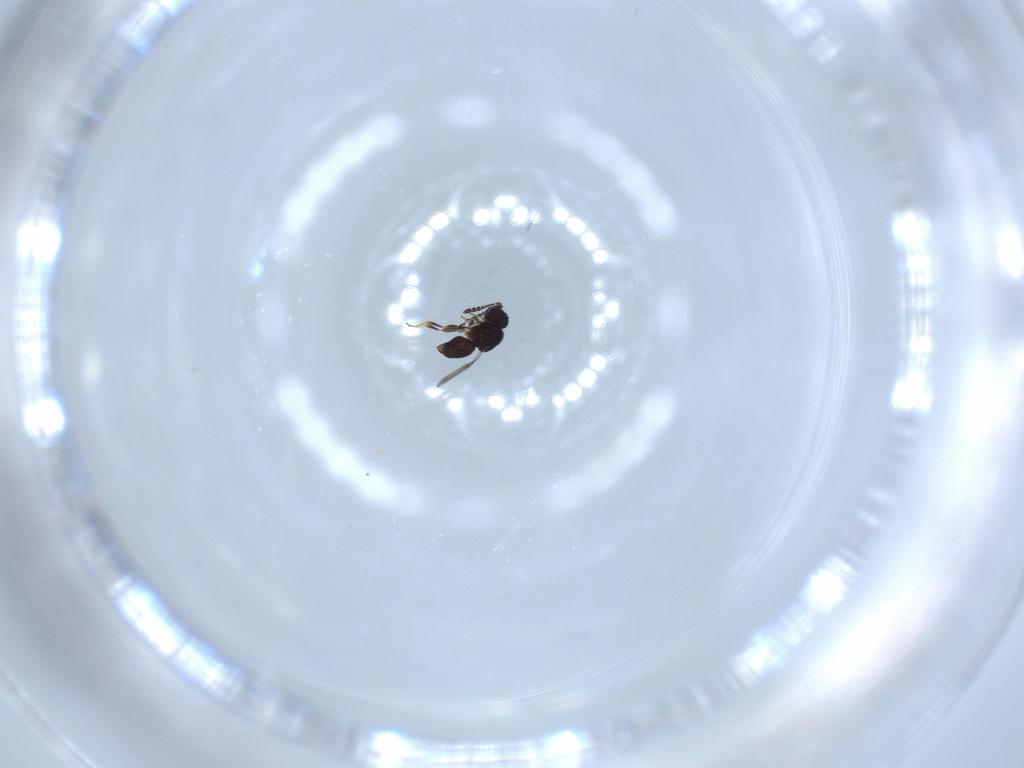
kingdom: Animalia
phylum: Arthropoda
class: Insecta
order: Hymenoptera
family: Ceraphronidae
